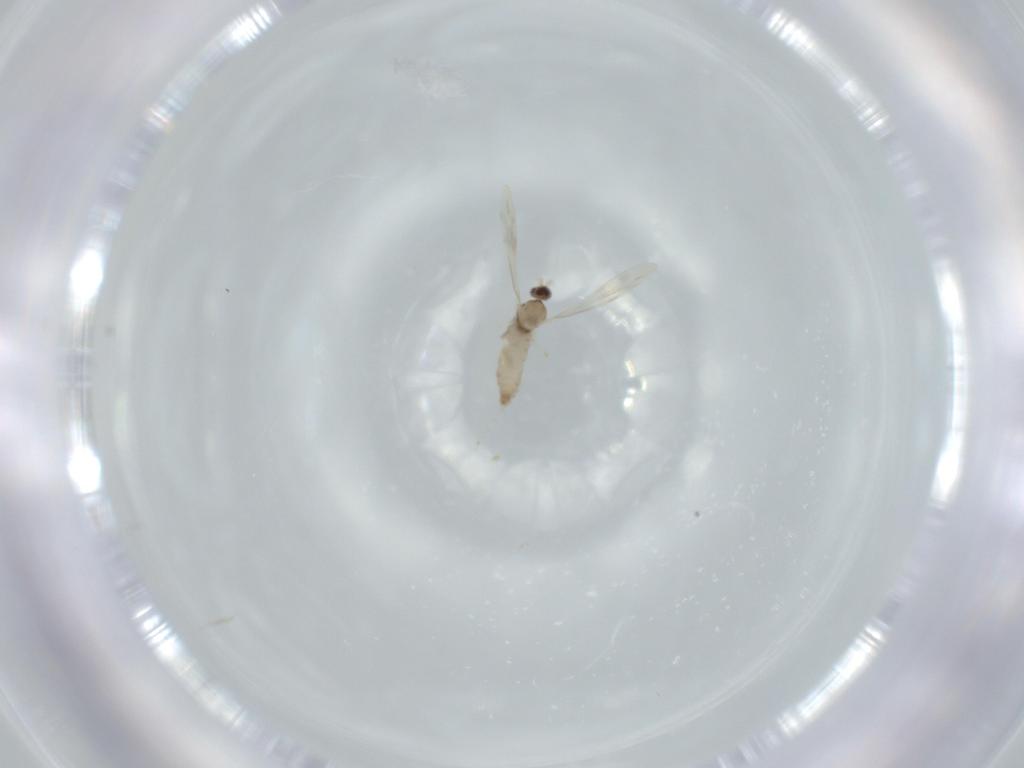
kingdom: Animalia
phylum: Arthropoda
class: Insecta
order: Diptera
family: Cecidomyiidae
